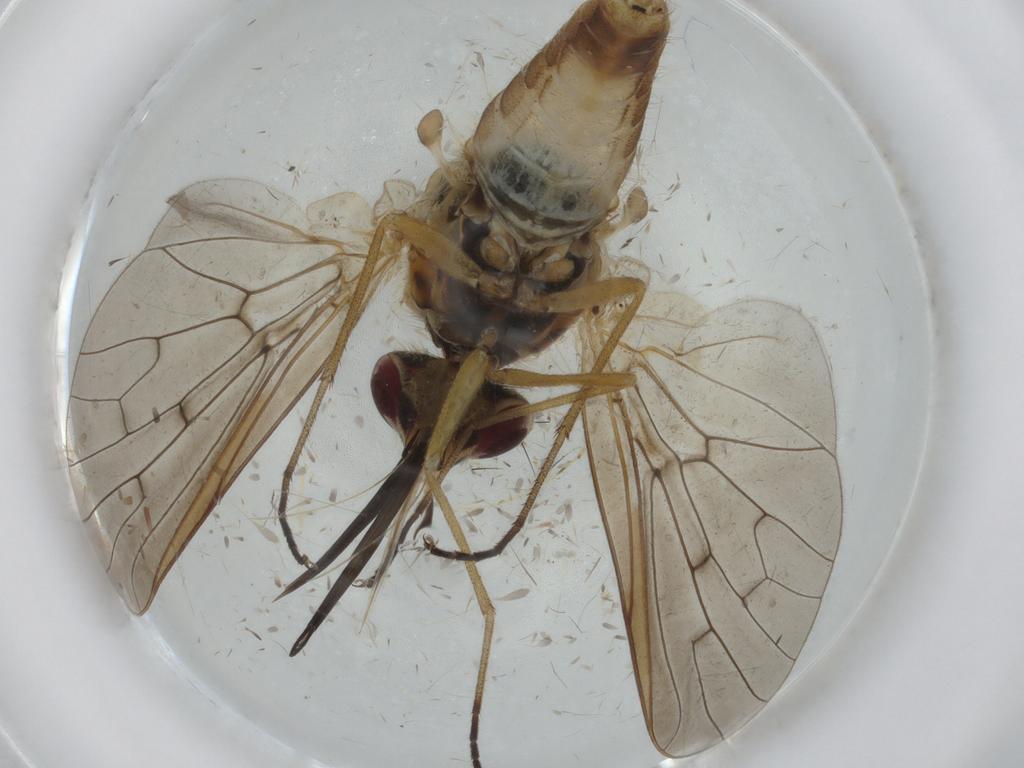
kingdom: Animalia
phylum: Arthropoda
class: Insecta
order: Diptera
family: Bombyliidae
